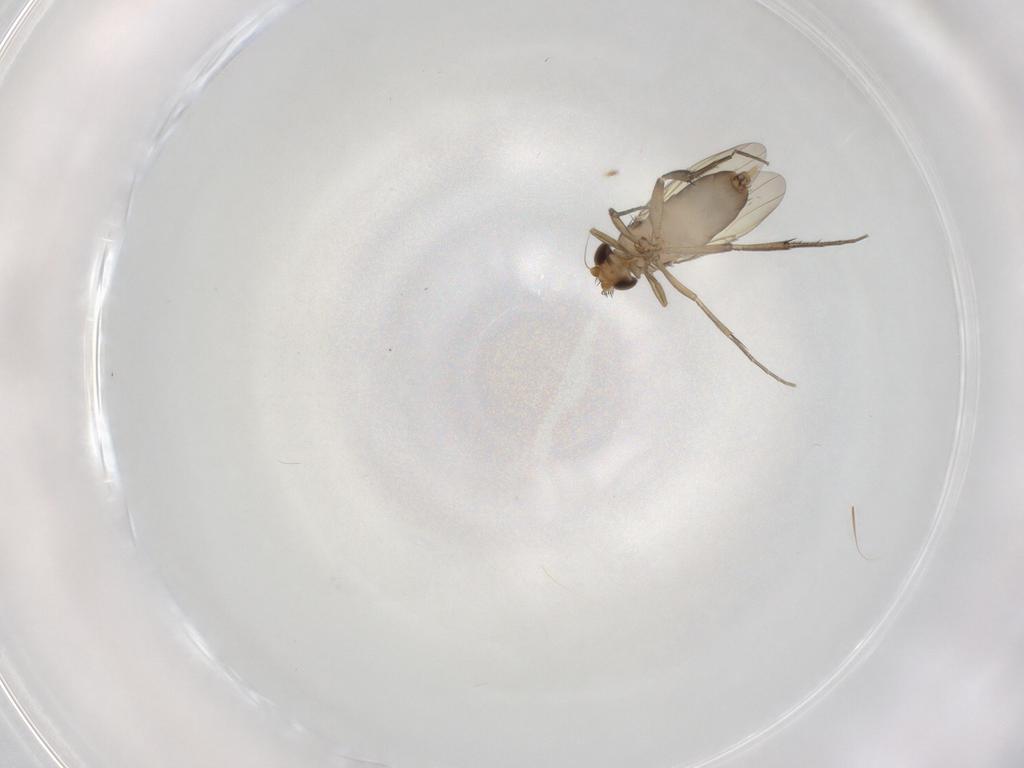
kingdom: Animalia
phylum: Arthropoda
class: Insecta
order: Diptera
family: Phoridae
